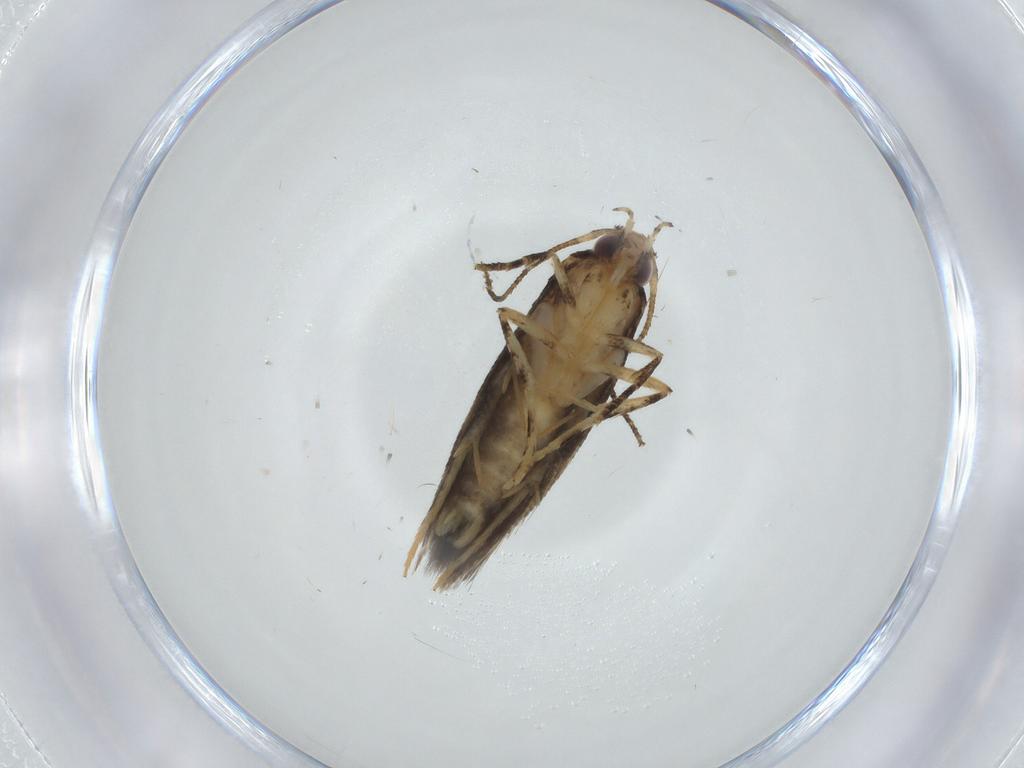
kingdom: Animalia
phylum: Arthropoda
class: Insecta
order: Lepidoptera
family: Cosmopterigidae
